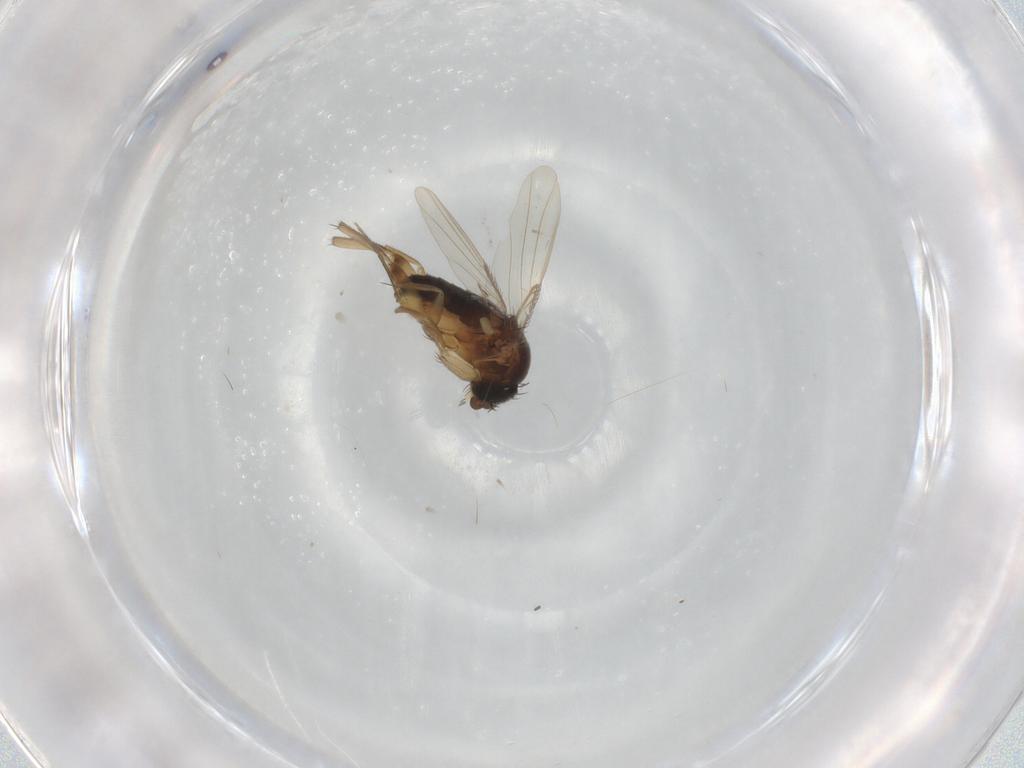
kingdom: Animalia
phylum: Arthropoda
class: Insecta
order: Diptera
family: Phoridae
